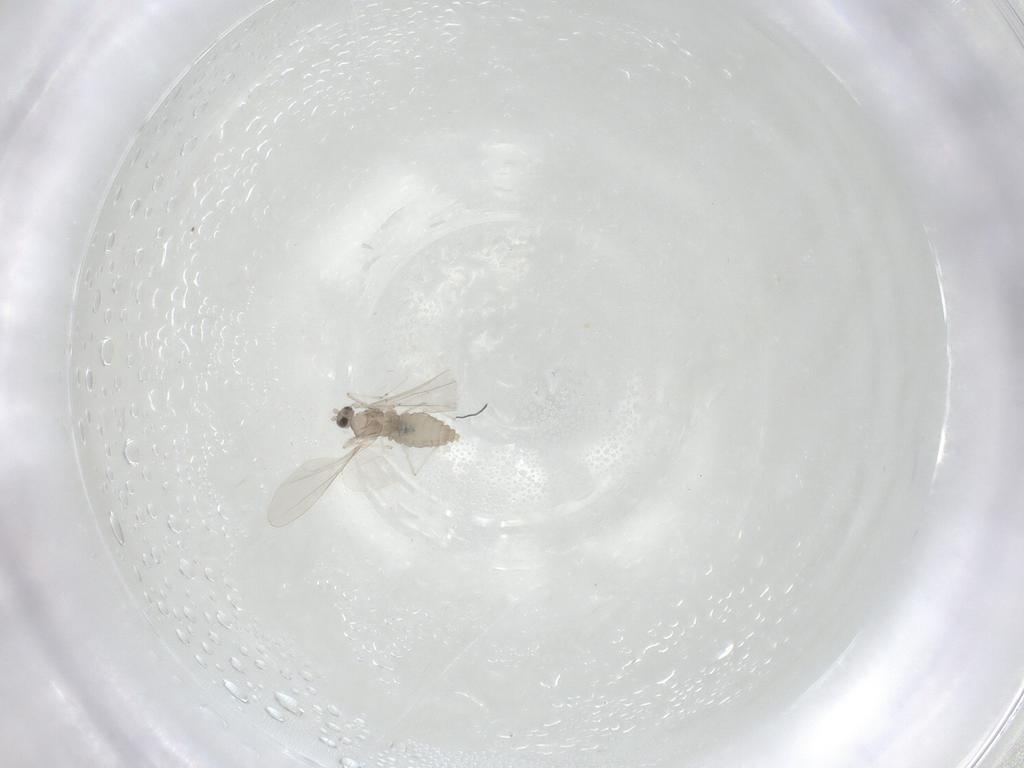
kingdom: Animalia
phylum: Arthropoda
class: Insecta
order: Diptera
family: Cecidomyiidae
